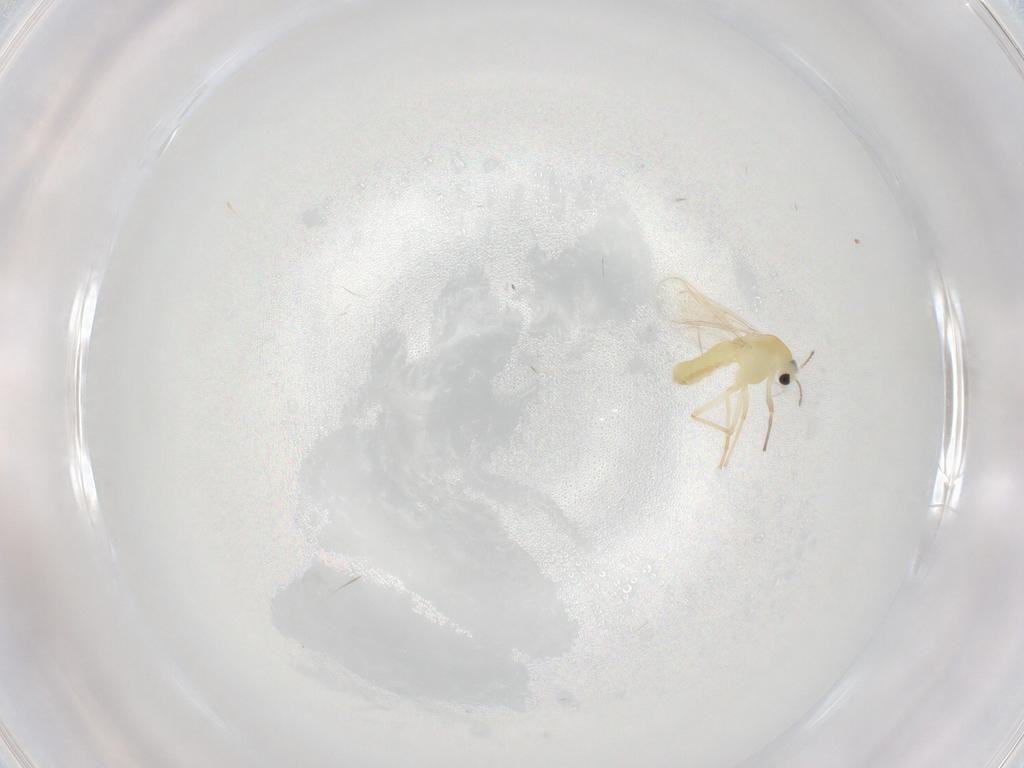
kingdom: Animalia
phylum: Arthropoda
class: Insecta
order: Diptera
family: Chironomidae
